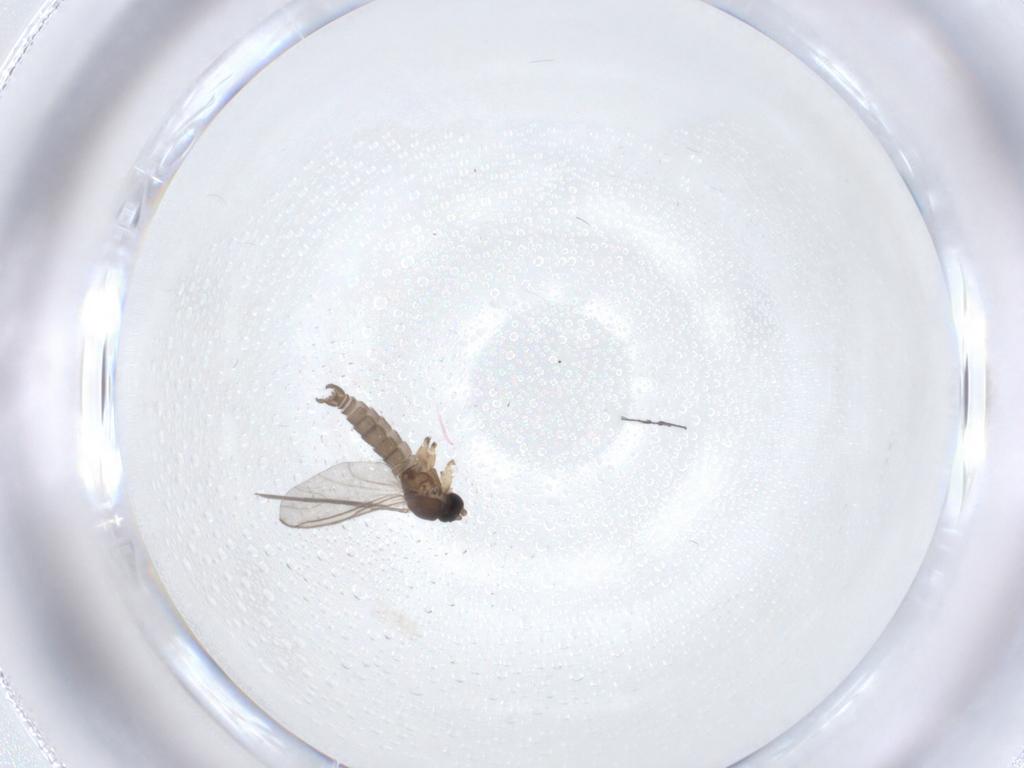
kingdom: Animalia
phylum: Arthropoda
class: Insecta
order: Diptera
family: Sciaridae
